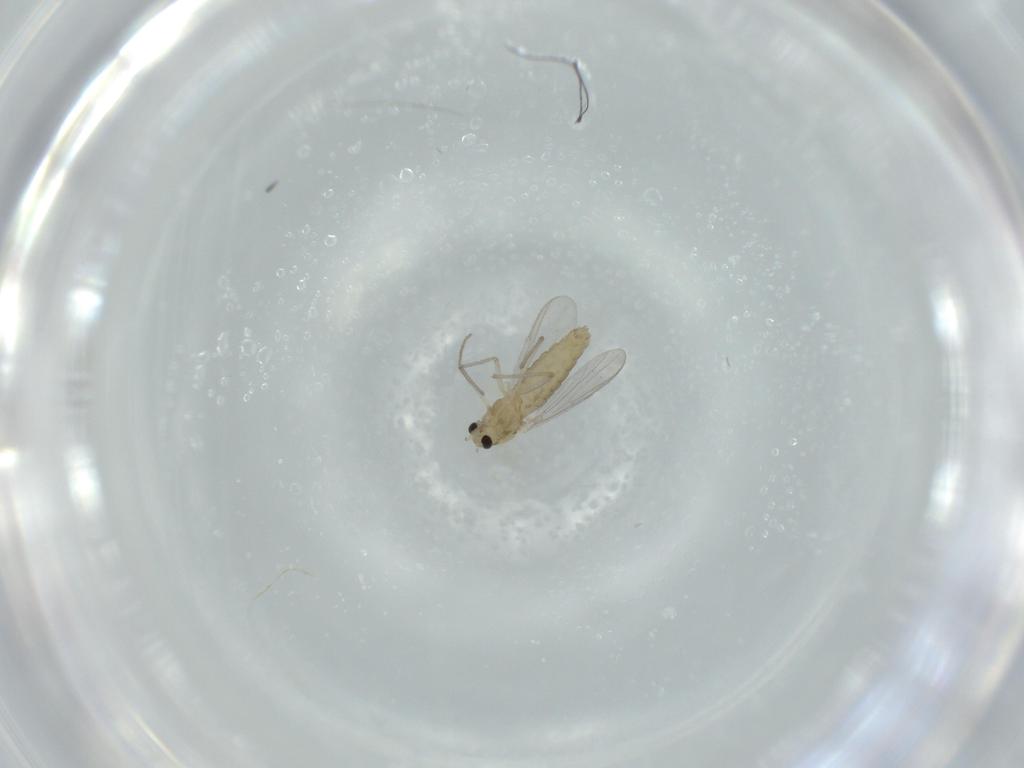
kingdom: Animalia
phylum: Arthropoda
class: Insecta
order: Diptera
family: Chironomidae
